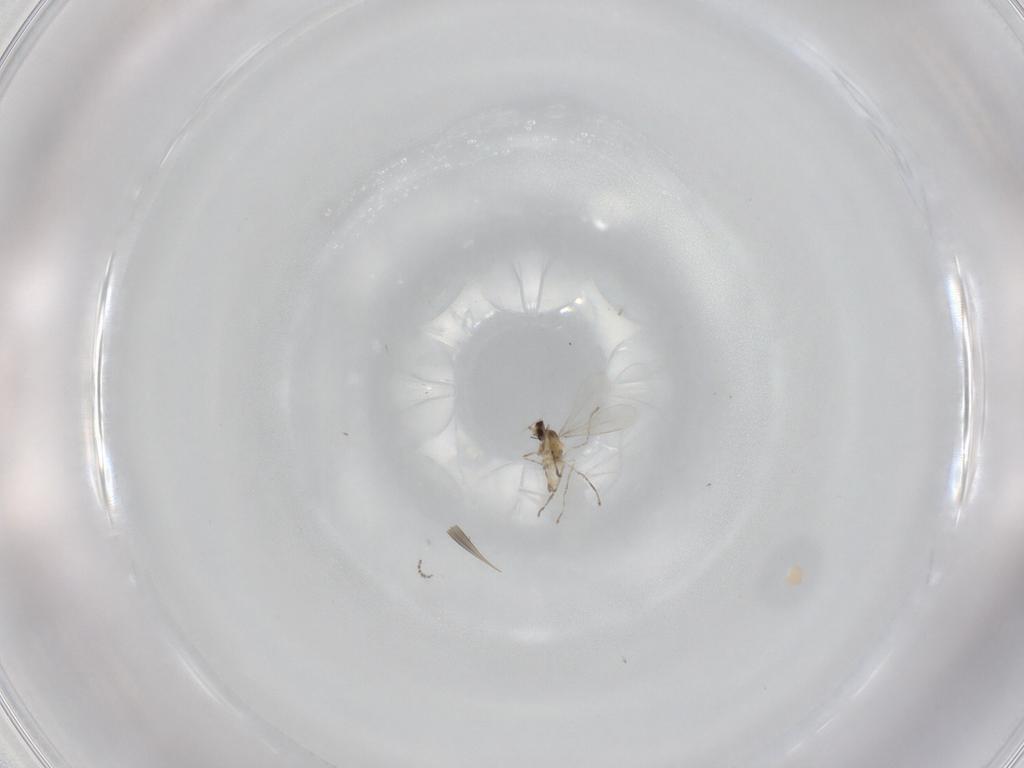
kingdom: Animalia
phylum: Arthropoda
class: Insecta
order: Diptera
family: Cecidomyiidae
